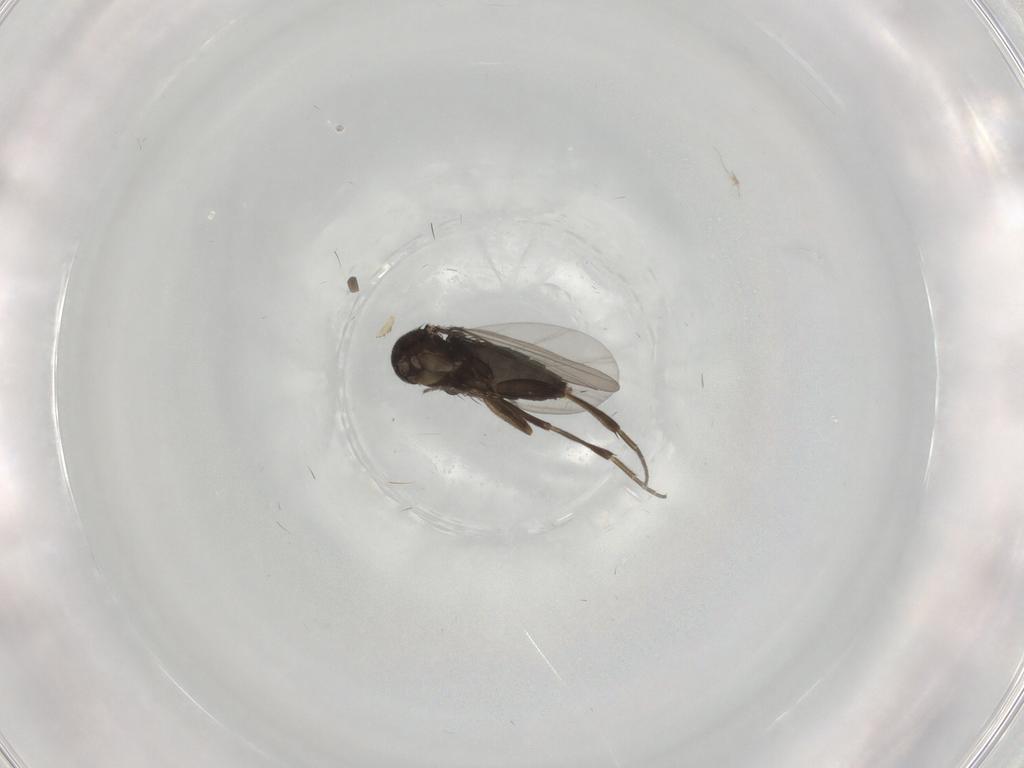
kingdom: Animalia
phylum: Arthropoda
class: Insecta
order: Diptera
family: Phoridae
